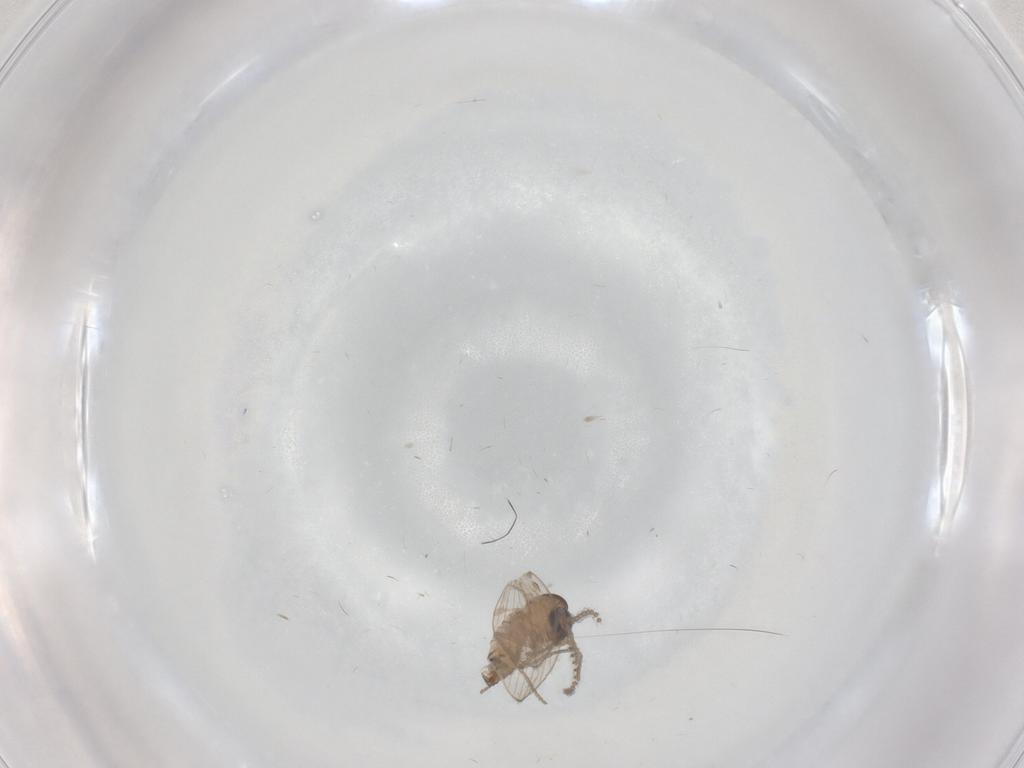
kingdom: Animalia
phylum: Arthropoda
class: Insecta
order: Diptera
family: Psychodidae
